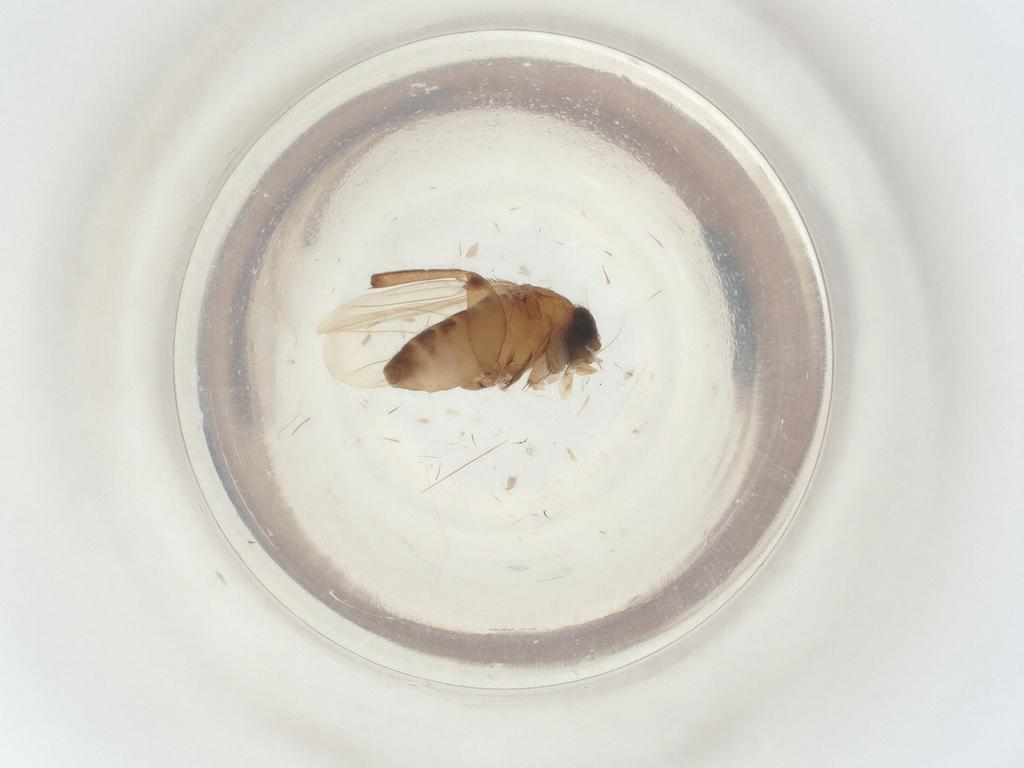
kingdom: Animalia
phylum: Arthropoda
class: Insecta
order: Diptera
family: Phoridae
